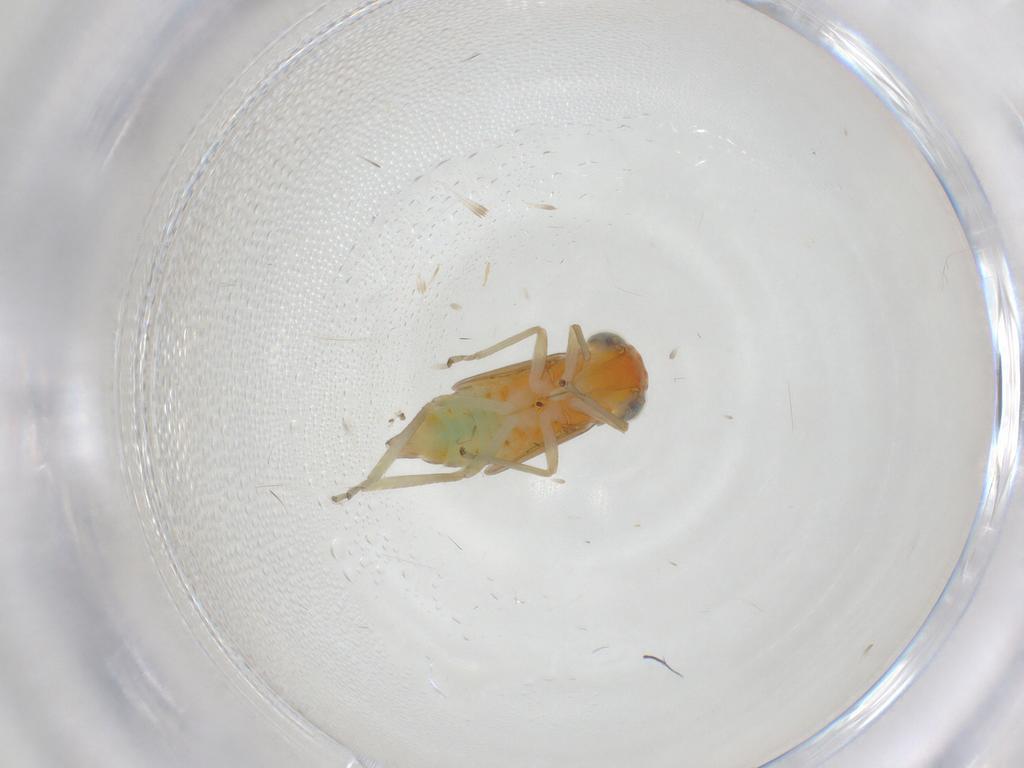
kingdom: Animalia
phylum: Arthropoda
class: Insecta
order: Hemiptera
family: Cicadellidae
